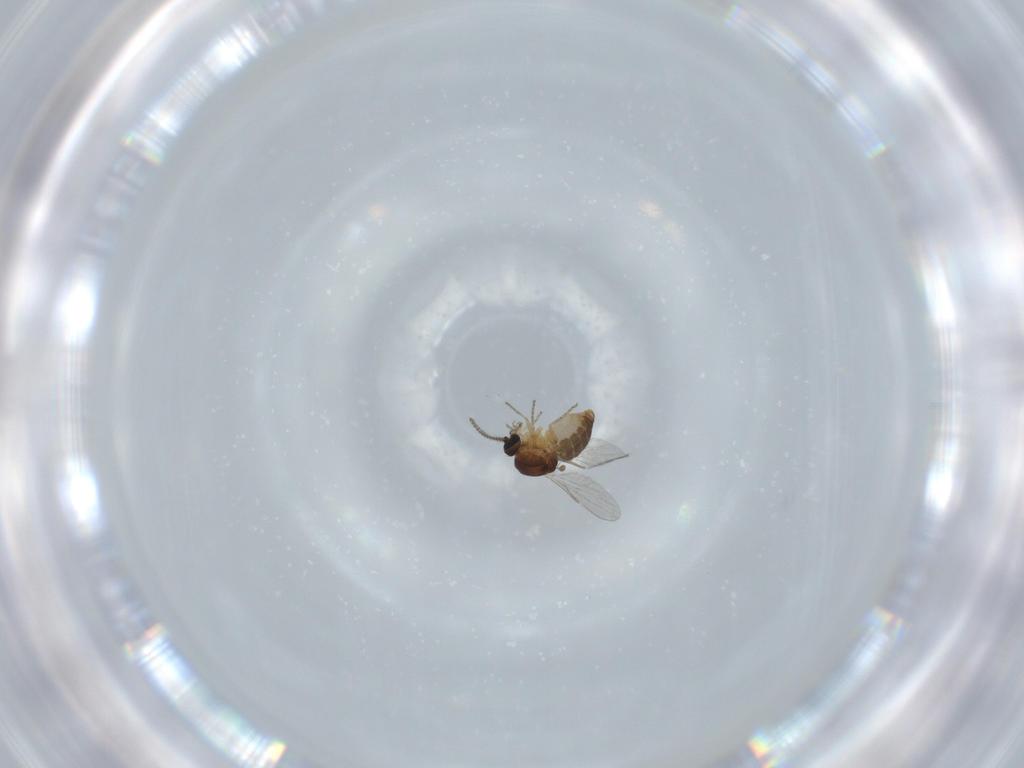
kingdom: Animalia
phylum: Arthropoda
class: Insecta
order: Diptera
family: Ceratopogonidae
